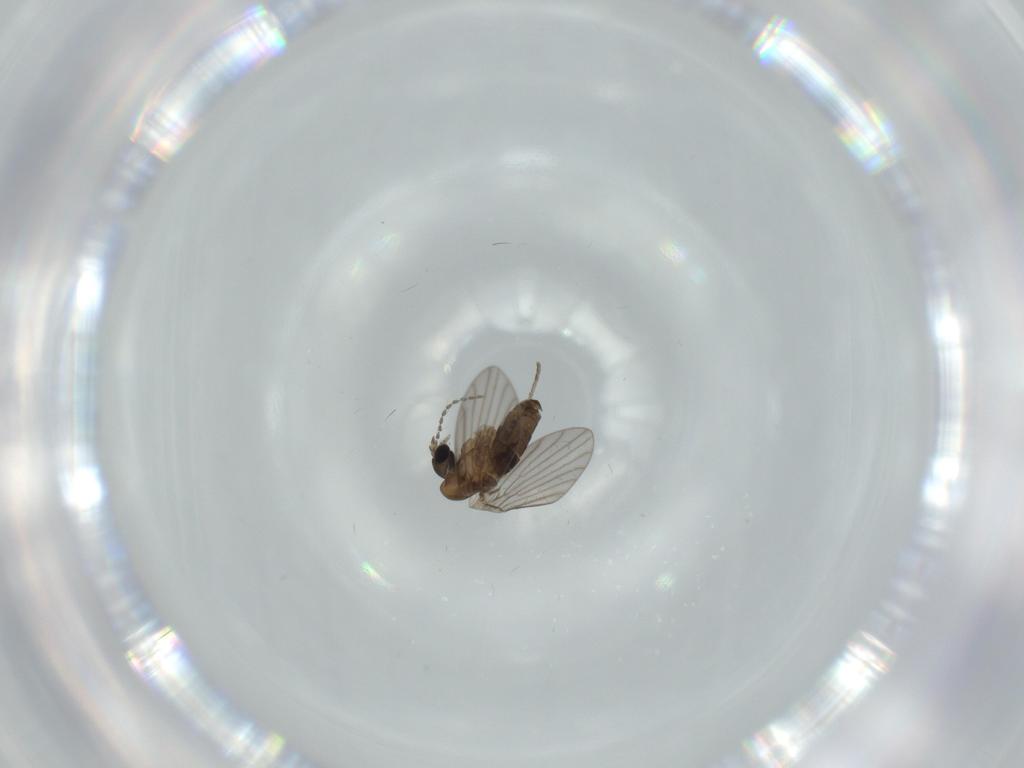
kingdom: Animalia
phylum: Arthropoda
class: Insecta
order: Diptera
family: Psychodidae
